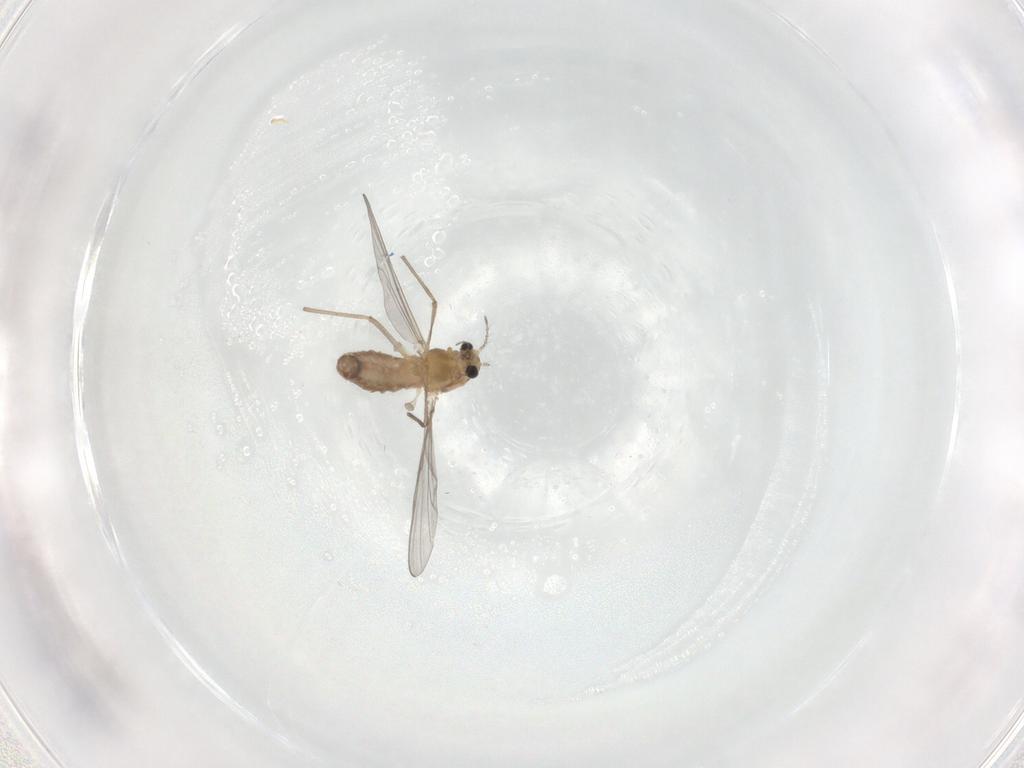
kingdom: Animalia
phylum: Arthropoda
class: Insecta
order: Diptera
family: Chironomidae
